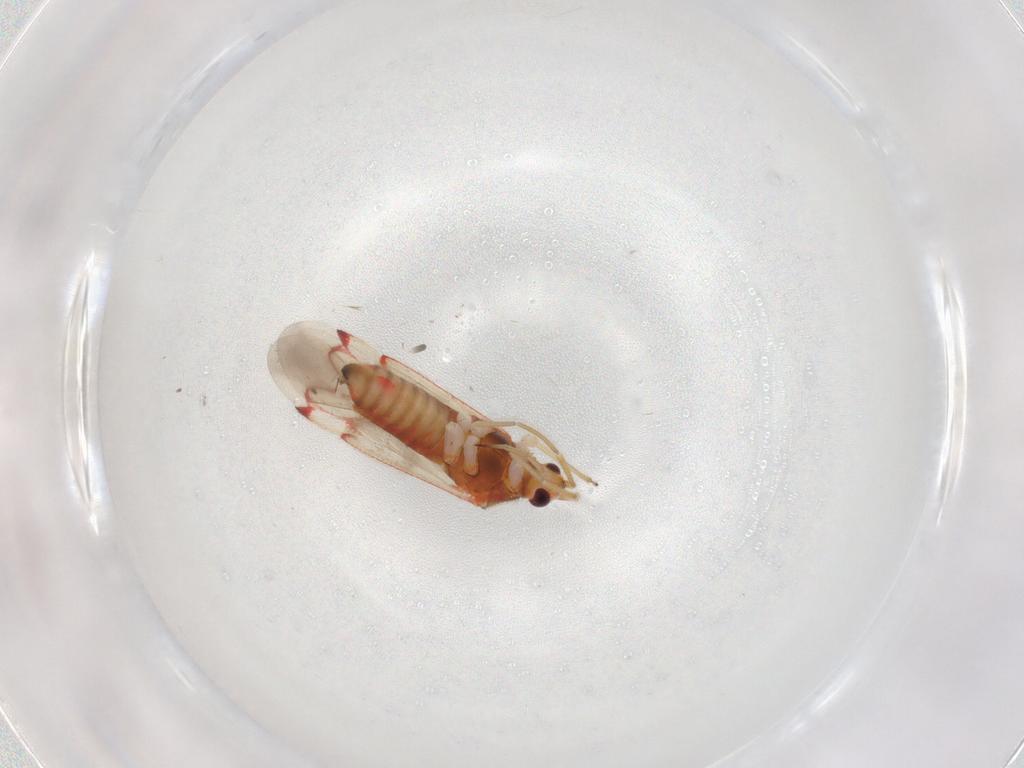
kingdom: Animalia
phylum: Arthropoda
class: Insecta
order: Hemiptera
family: Miridae
